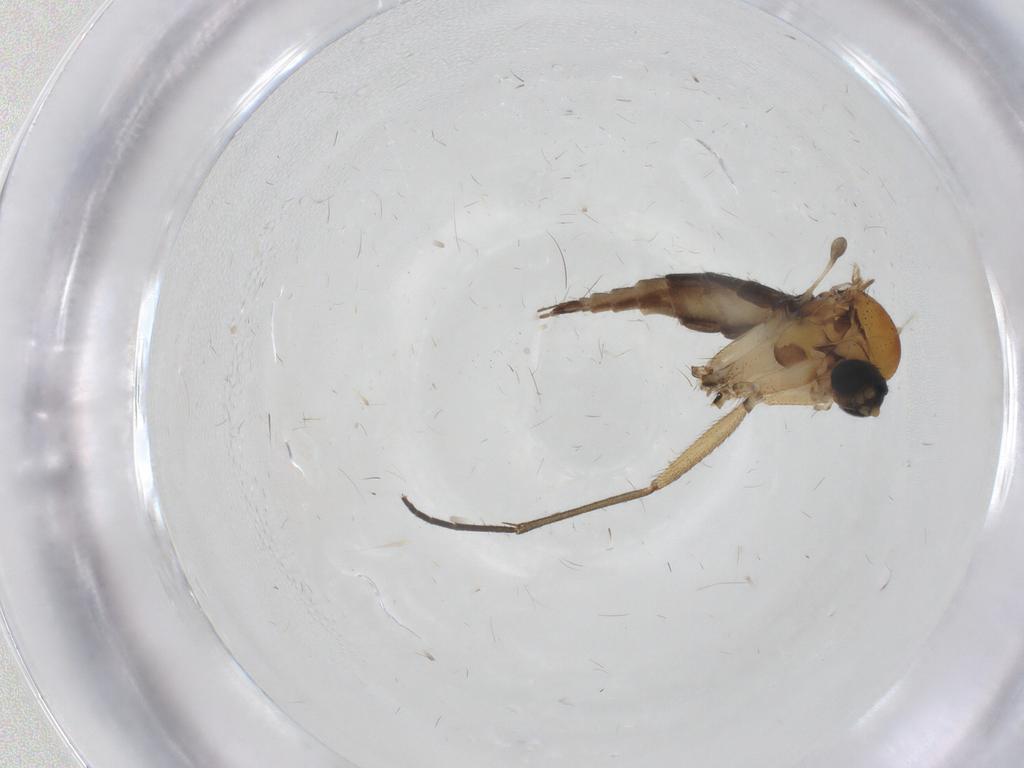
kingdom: Animalia
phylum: Arthropoda
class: Insecta
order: Diptera
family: Sciaridae
